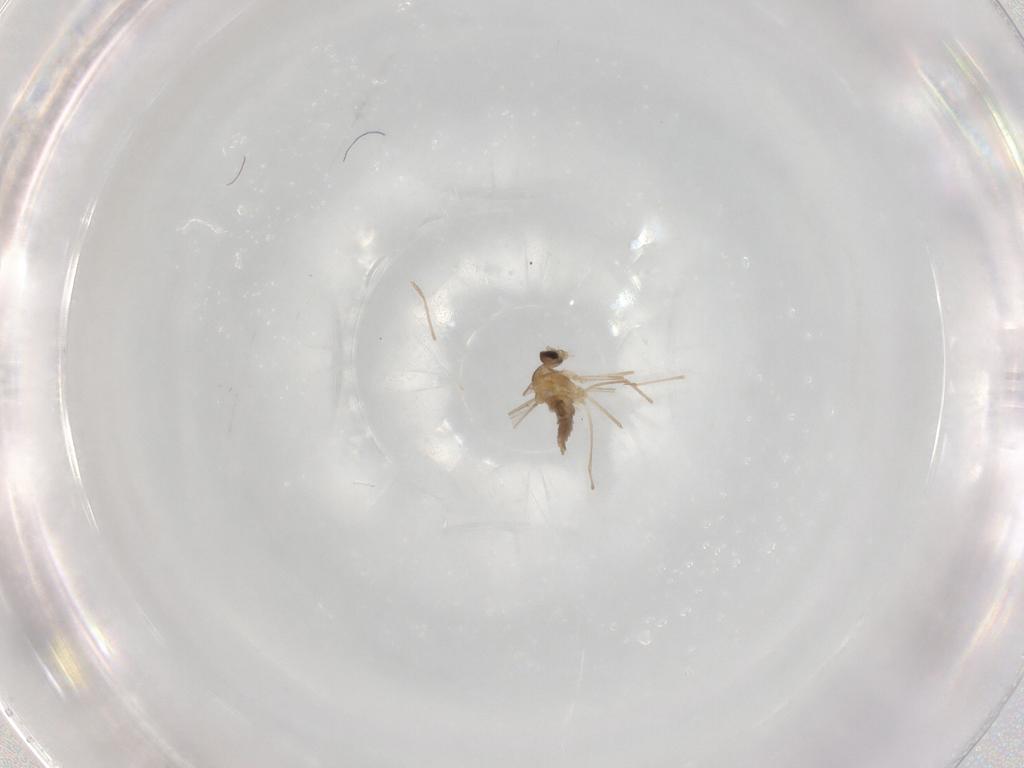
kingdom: Animalia
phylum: Arthropoda
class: Insecta
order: Diptera
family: Cecidomyiidae
